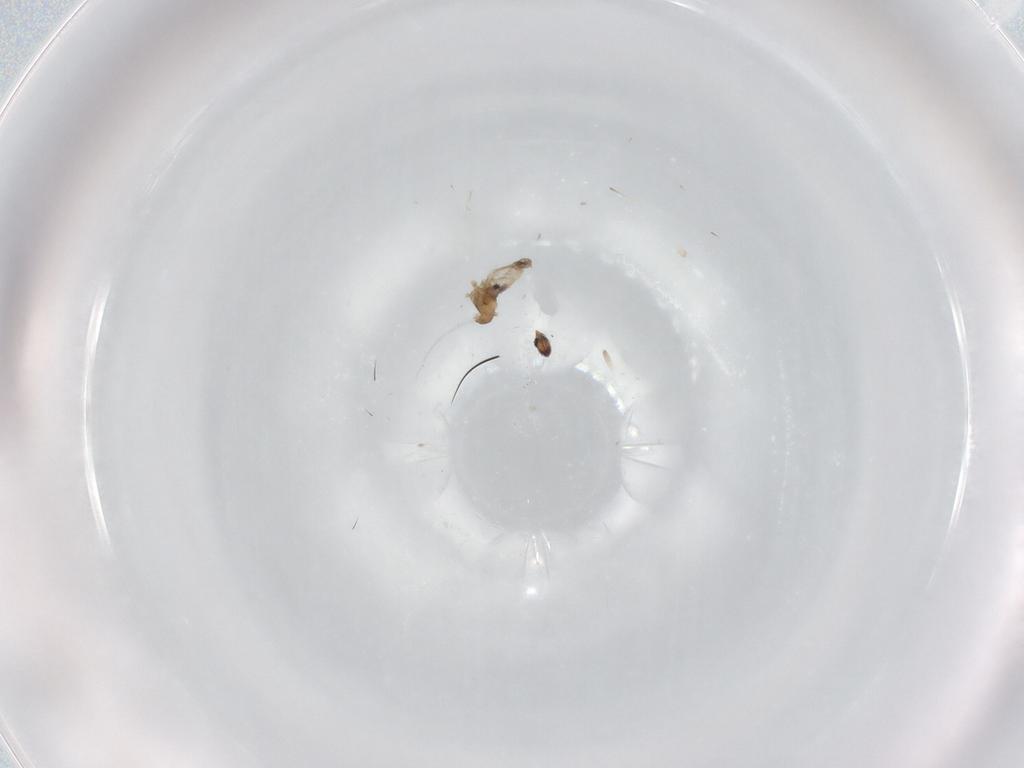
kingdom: Animalia
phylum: Arthropoda
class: Insecta
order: Diptera
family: Cecidomyiidae
